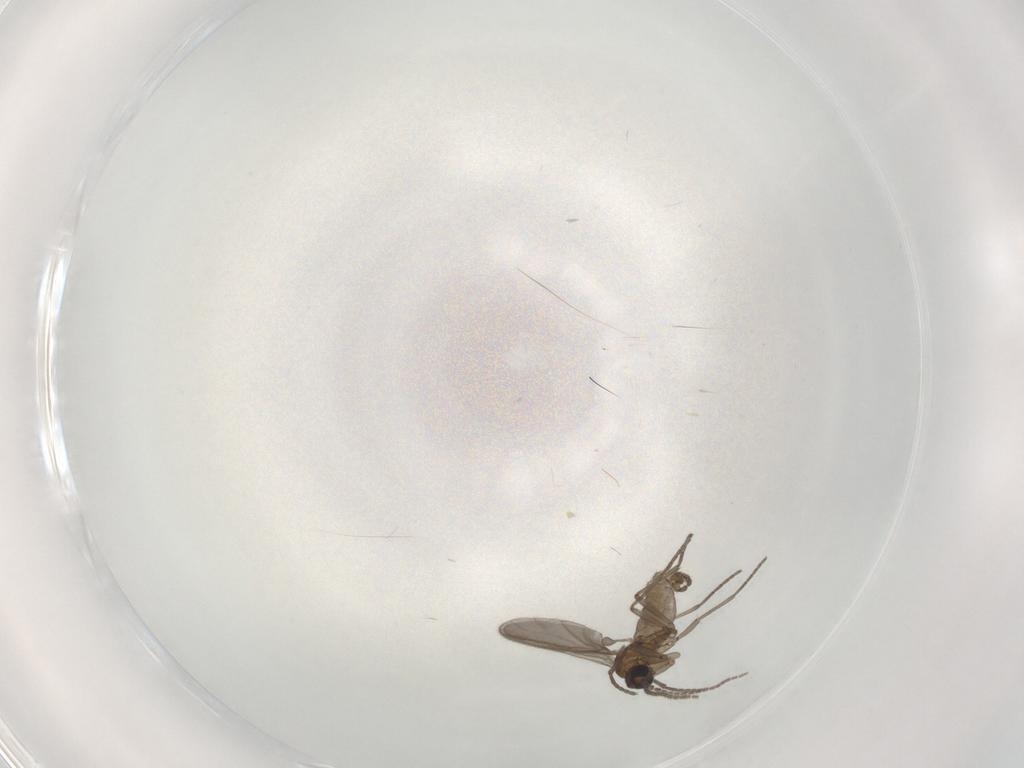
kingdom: Animalia
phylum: Arthropoda
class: Insecta
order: Diptera
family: Sciaridae
